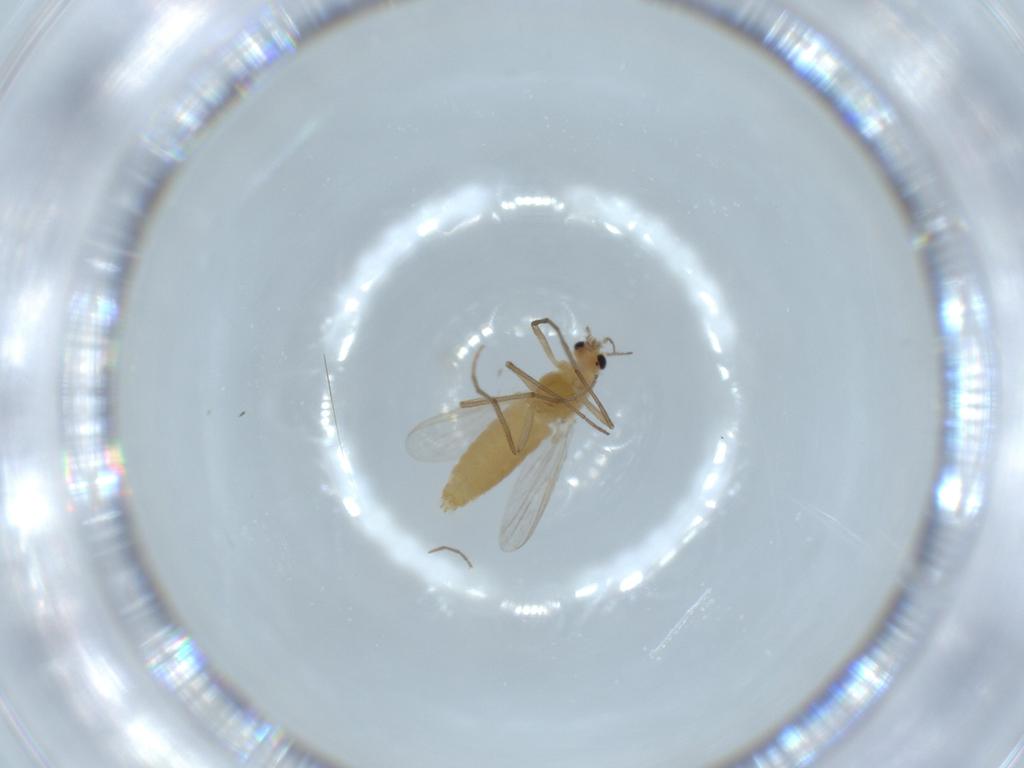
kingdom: Animalia
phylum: Arthropoda
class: Insecta
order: Diptera
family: Chironomidae
